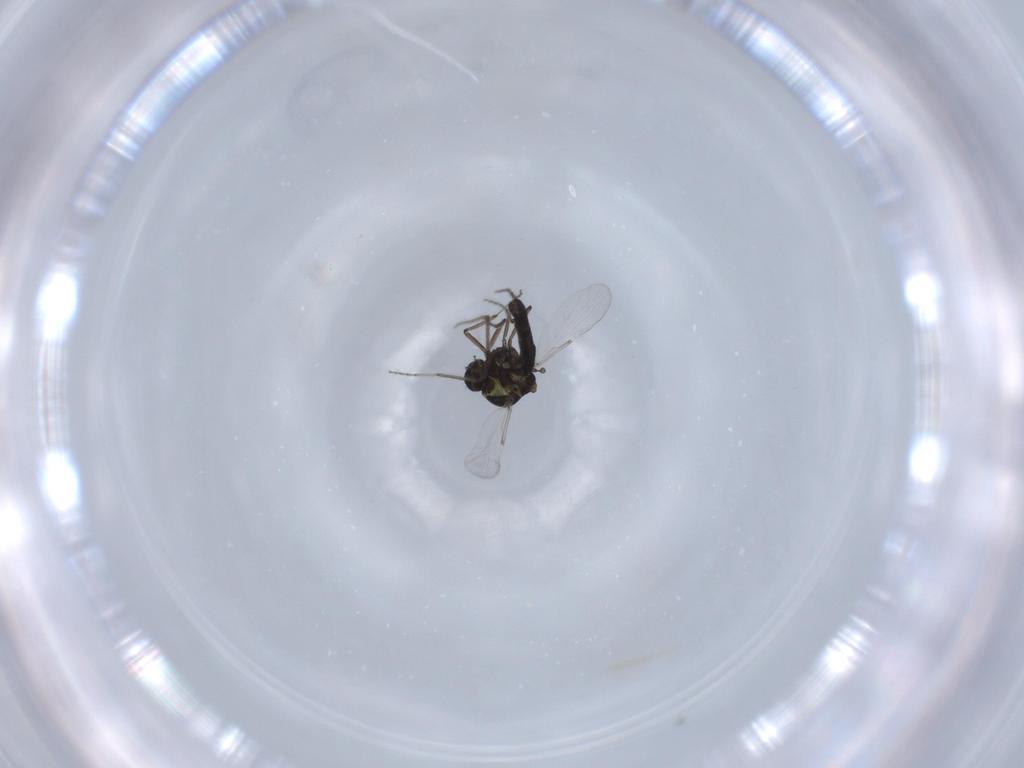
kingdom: Animalia
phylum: Arthropoda
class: Insecta
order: Diptera
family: Ceratopogonidae
